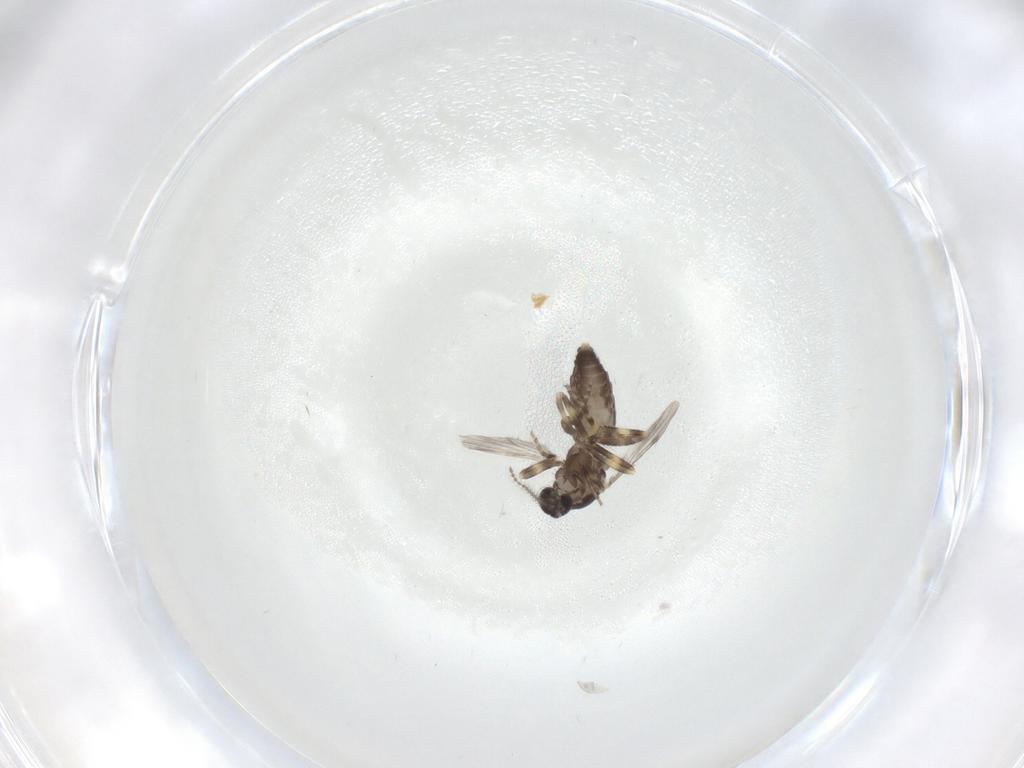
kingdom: Animalia
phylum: Arthropoda
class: Insecta
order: Diptera
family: Ceratopogonidae
